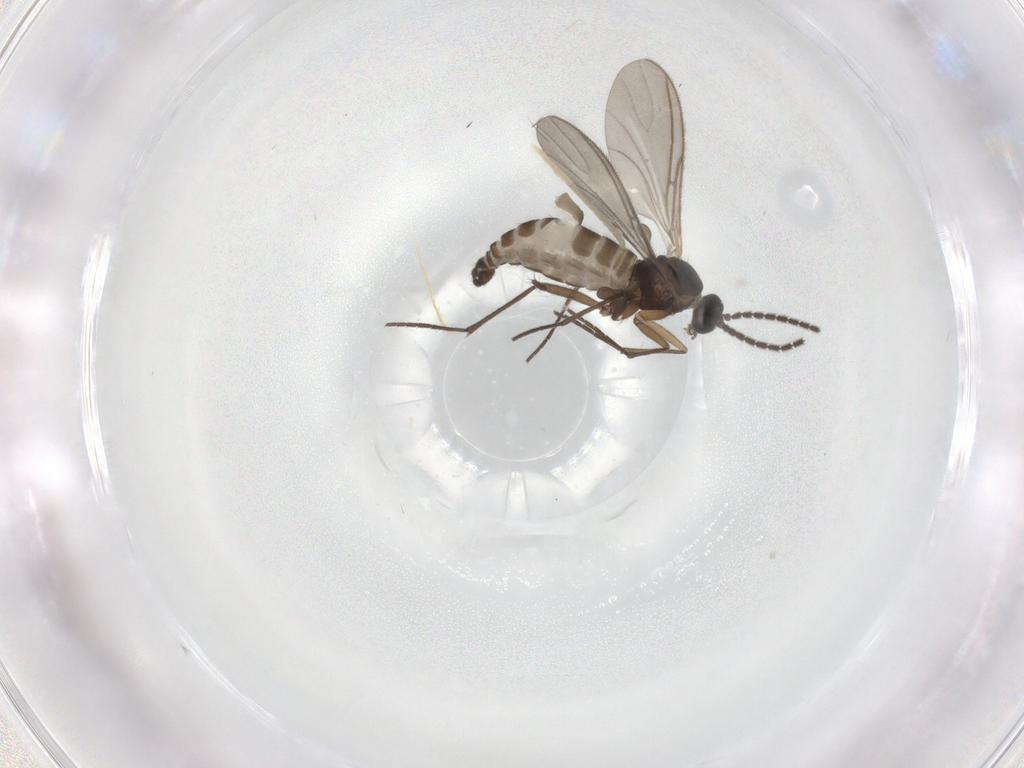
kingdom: Animalia
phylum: Arthropoda
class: Insecta
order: Diptera
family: Ceratopogonidae
